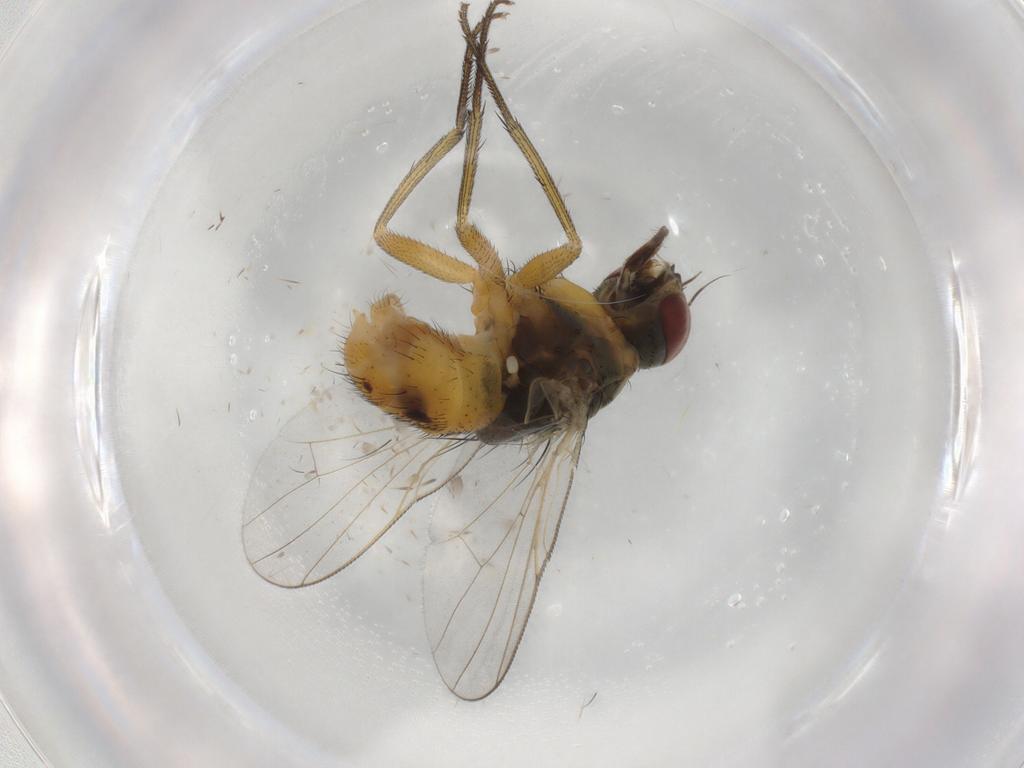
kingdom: Animalia
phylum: Arthropoda
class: Insecta
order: Diptera
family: Muscidae
